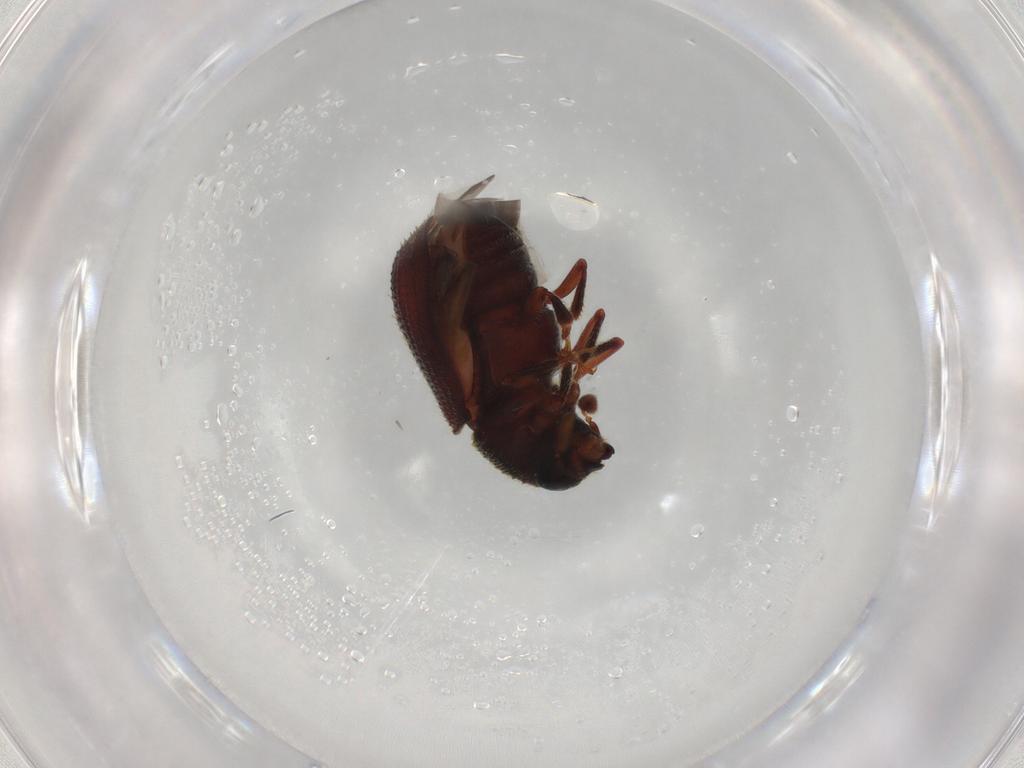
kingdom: Animalia
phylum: Arthropoda
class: Insecta
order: Coleoptera
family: Curculionidae
